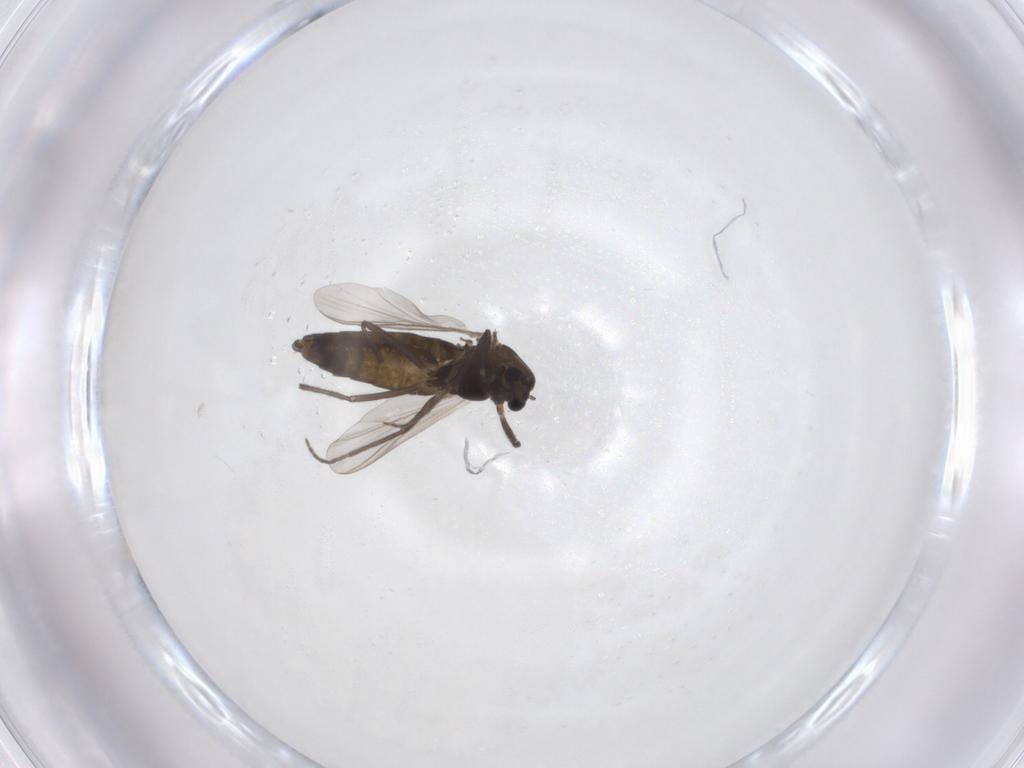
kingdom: Animalia
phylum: Arthropoda
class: Insecta
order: Diptera
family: Chironomidae
